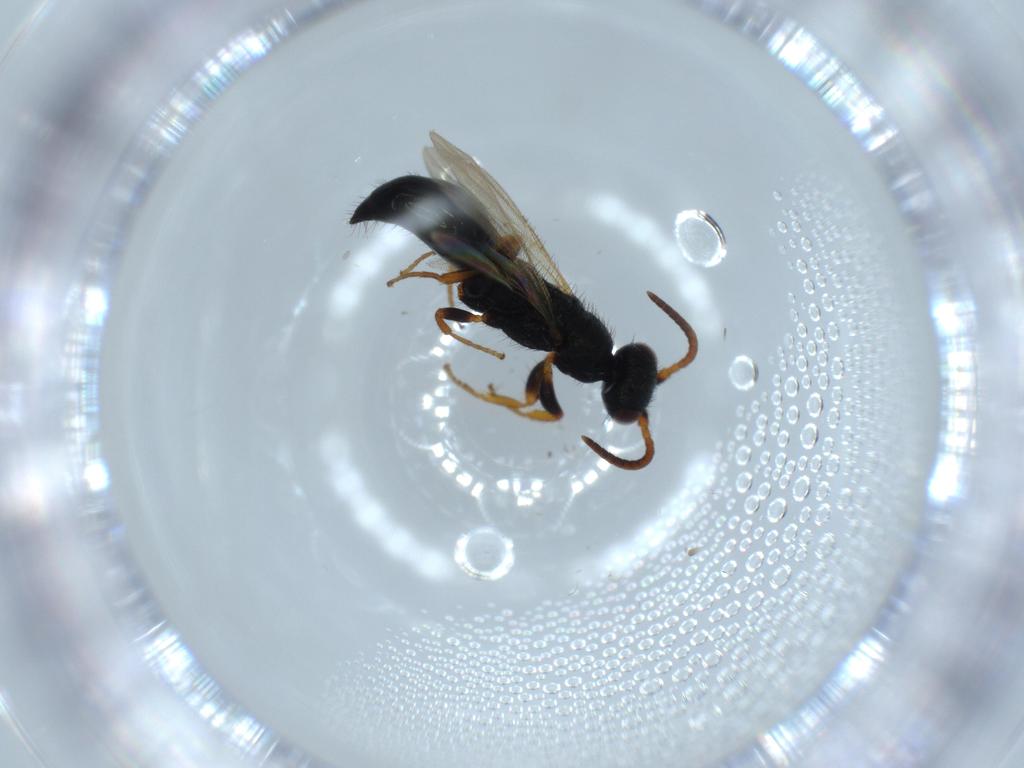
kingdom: Animalia
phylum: Arthropoda
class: Insecta
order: Hymenoptera
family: Bethylidae
